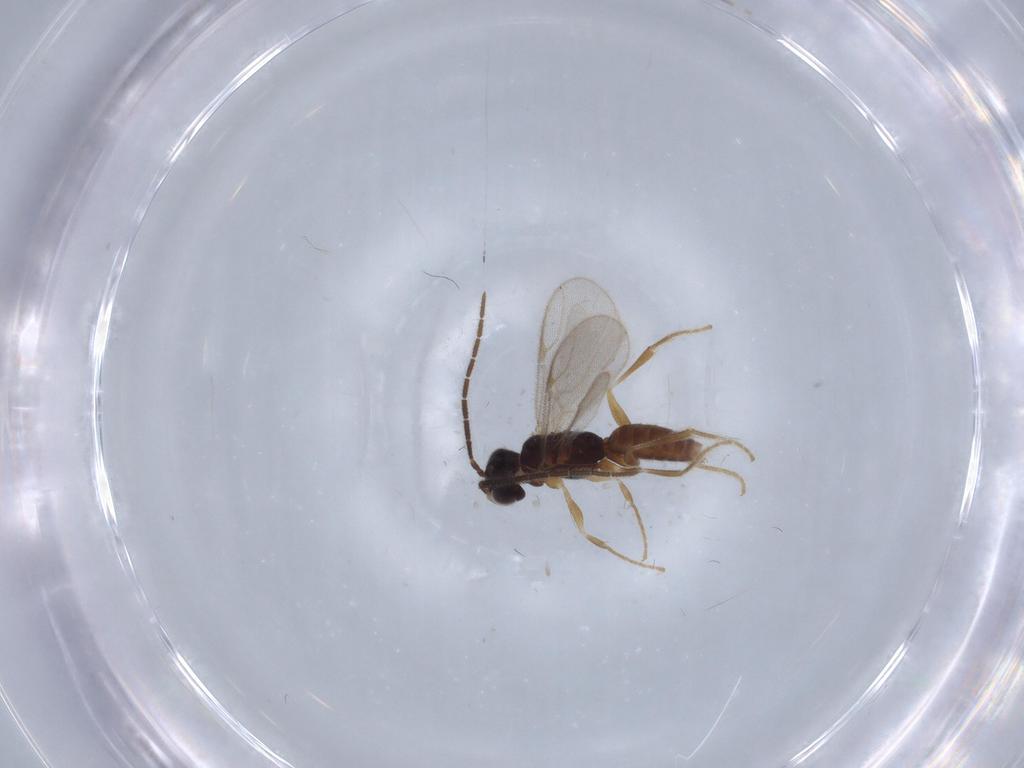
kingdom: Animalia
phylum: Arthropoda
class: Insecta
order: Hymenoptera
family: Dryinidae
